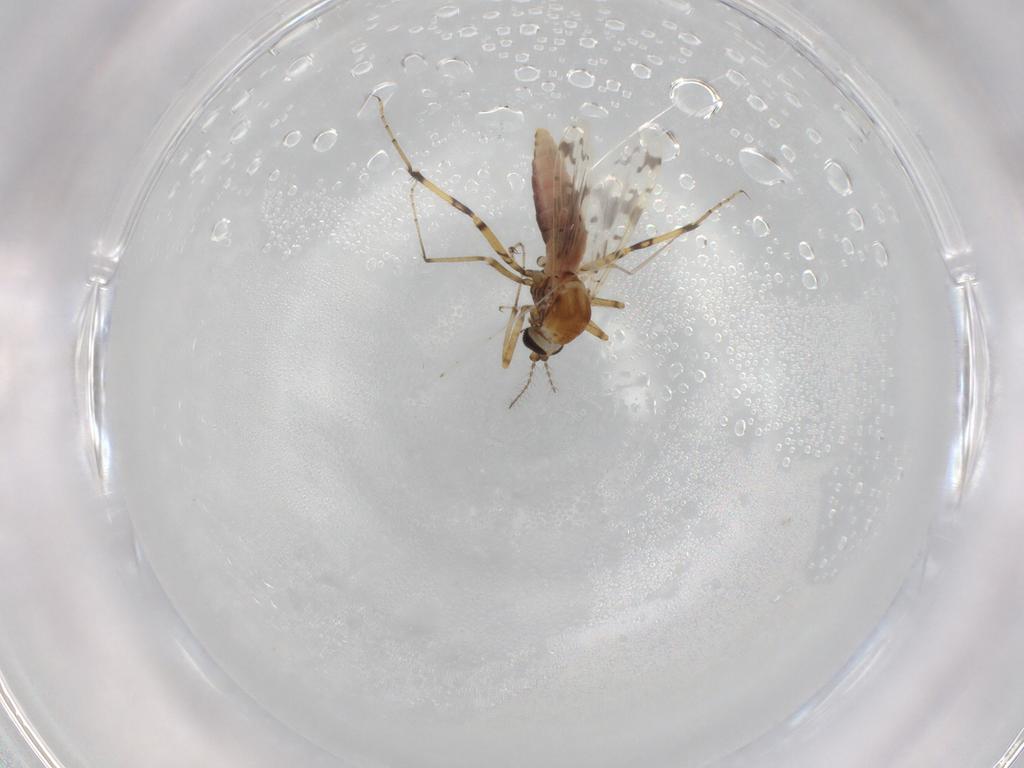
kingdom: Animalia
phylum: Arthropoda
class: Insecta
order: Diptera
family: Ceratopogonidae
